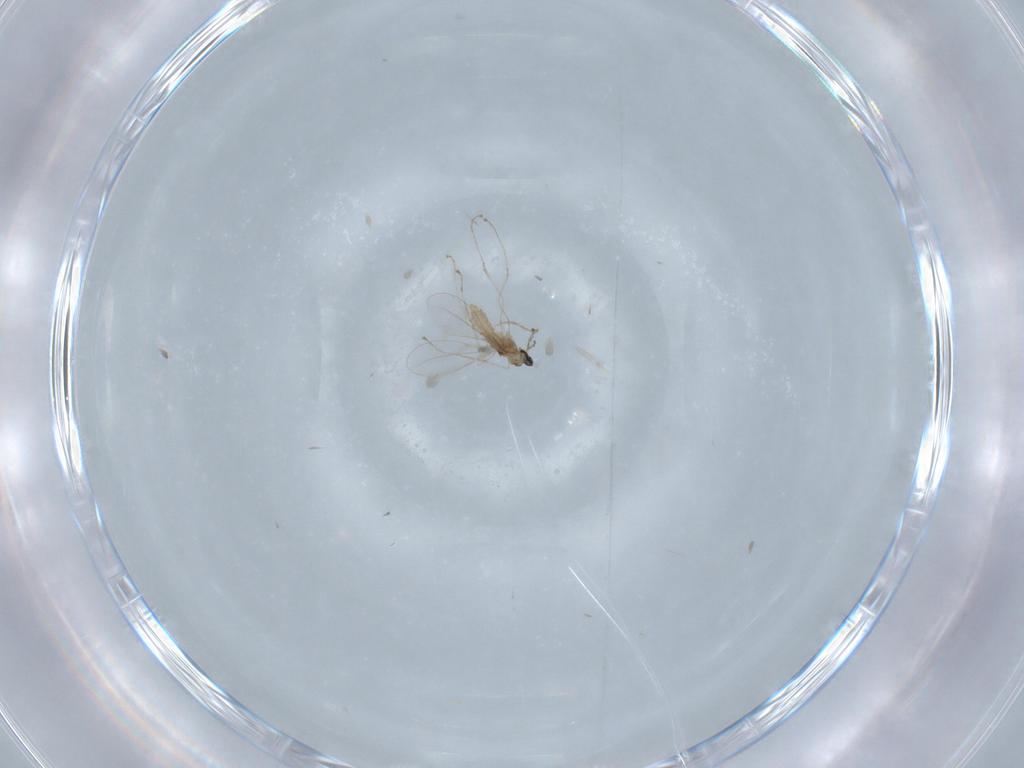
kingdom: Animalia
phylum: Arthropoda
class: Insecta
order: Diptera
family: Cecidomyiidae
